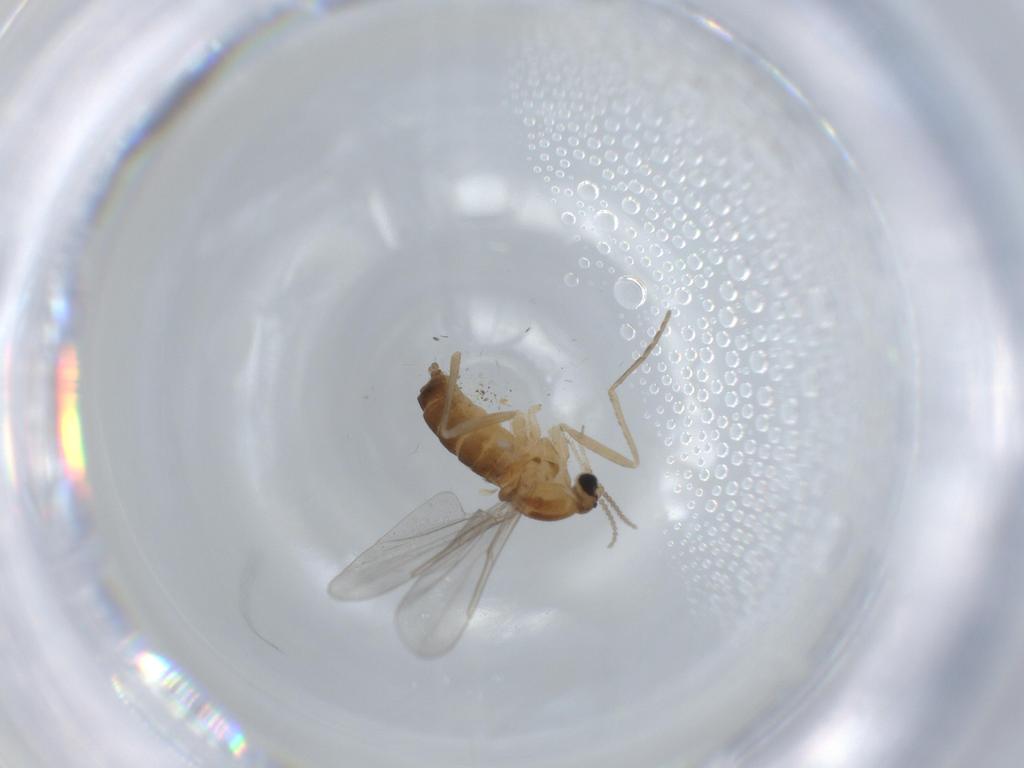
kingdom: Animalia
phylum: Arthropoda
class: Insecta
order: Diptera
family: Cecidomyiidae
